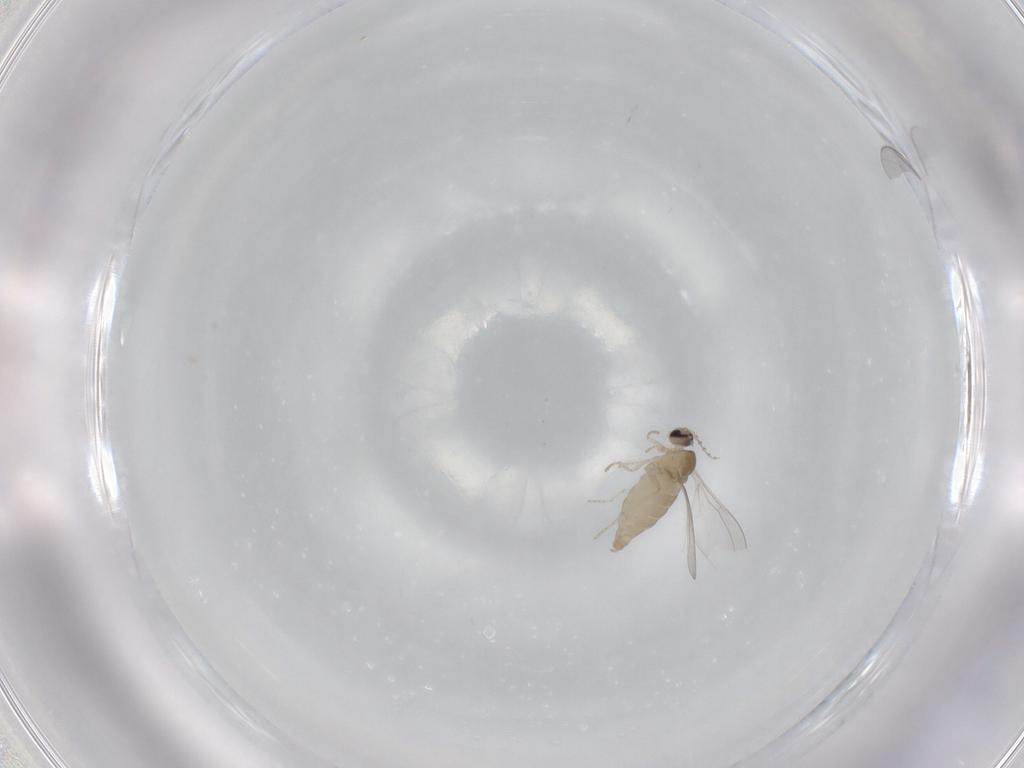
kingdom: Animalia
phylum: Arthropoda
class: Insecta
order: Diptera
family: Cecidomyiidae
